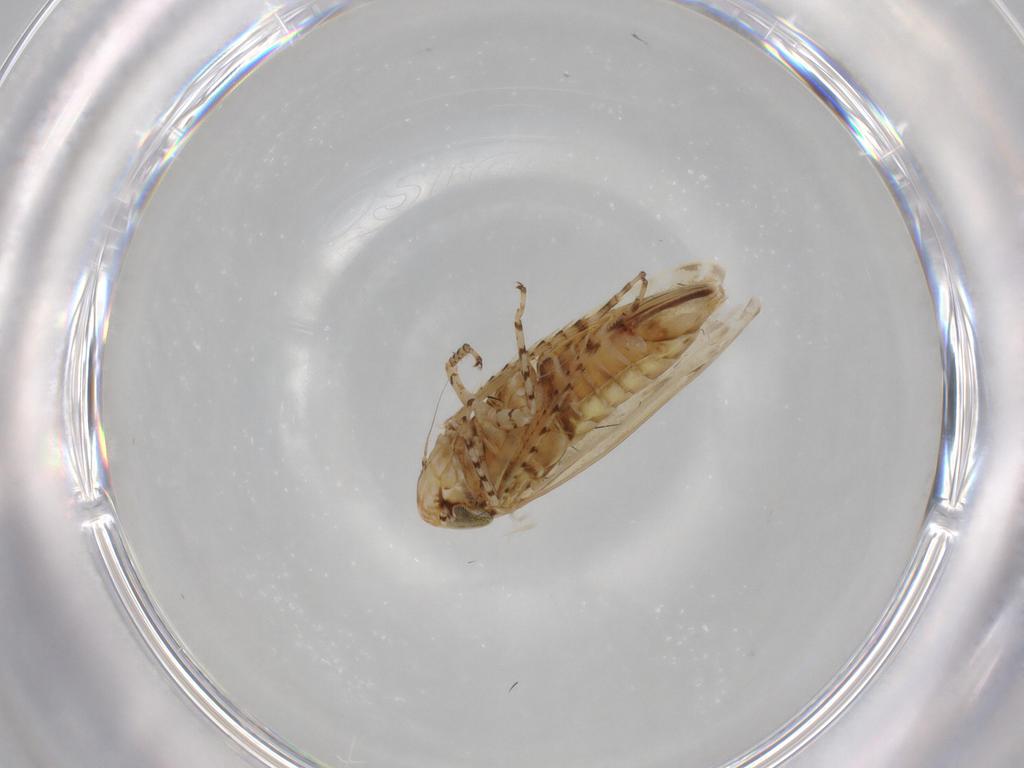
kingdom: Animalia
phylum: Arthropoda
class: Insecta
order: Hemiptera
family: Cicadellidae
